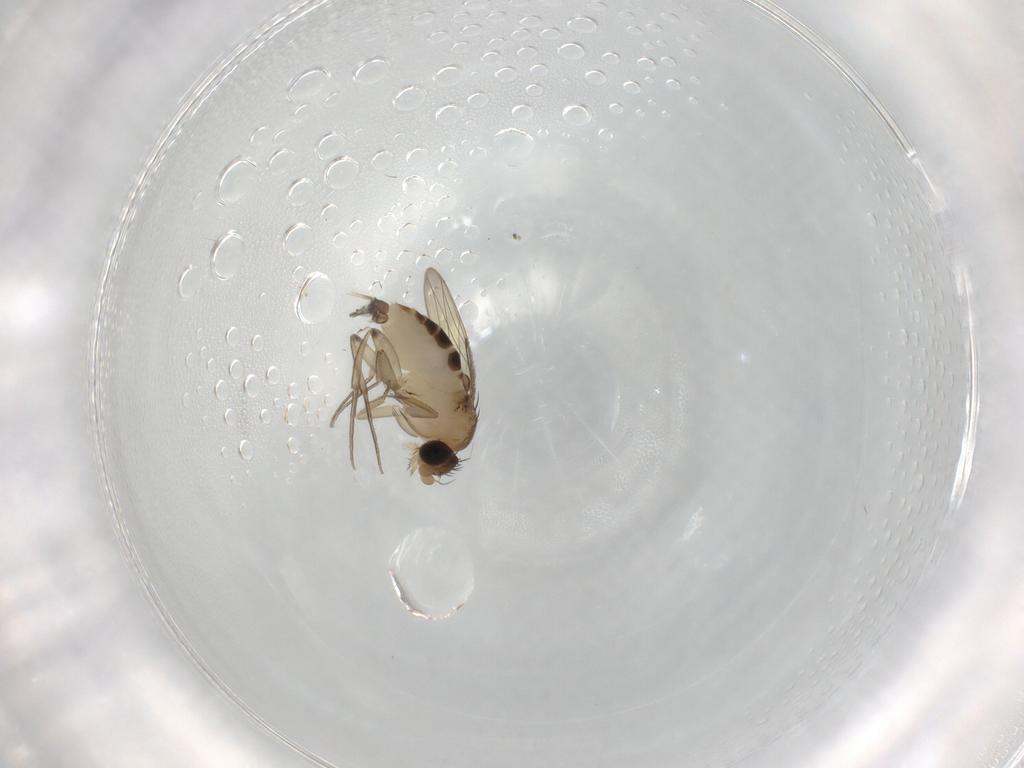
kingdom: Animalia
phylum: Arthropoda
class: Insecta
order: Diptera
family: Phoridae
